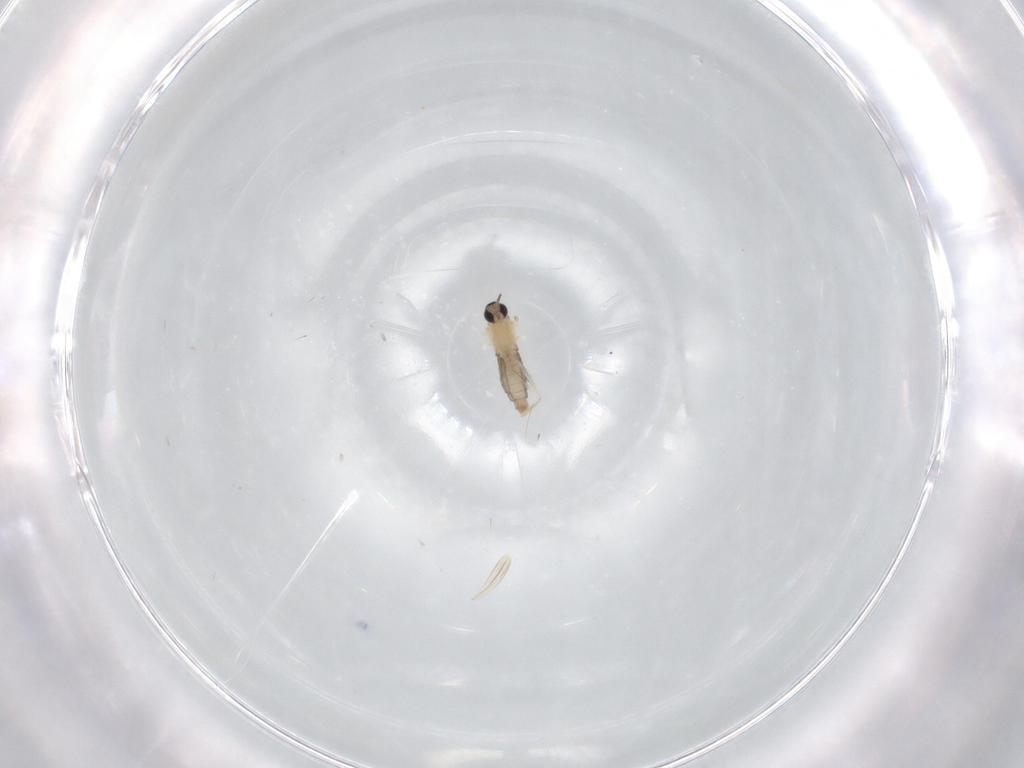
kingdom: Animalia
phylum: Arthropoda
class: Insecta
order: Diptera
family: Cecidomyiidae
